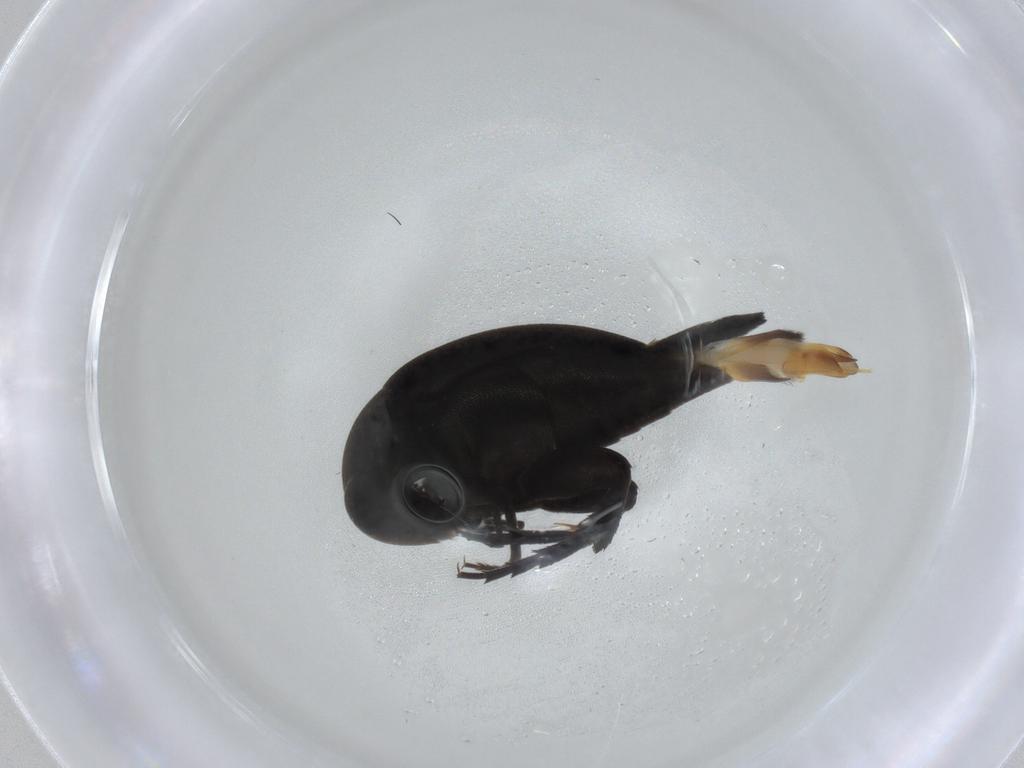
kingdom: Animalia
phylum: Arthropoda
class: Insecta
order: Coleoptera
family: Mordellidae
